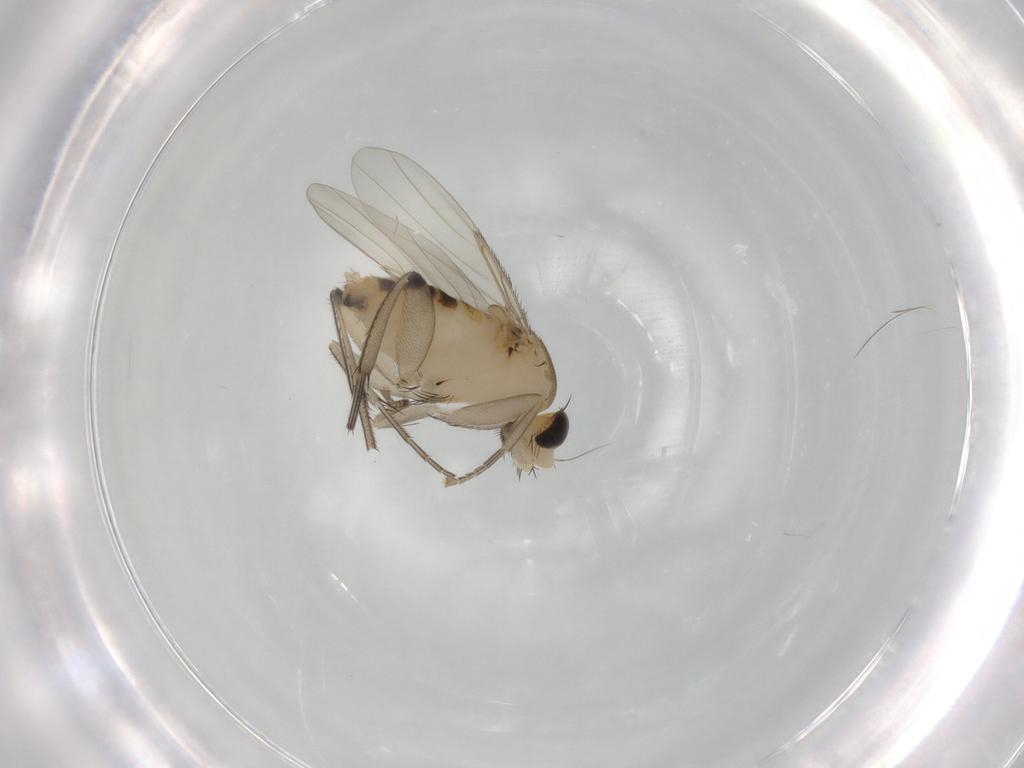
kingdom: Animalia
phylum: Arthropoda
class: Insecta
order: Diptera
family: Phoridae
